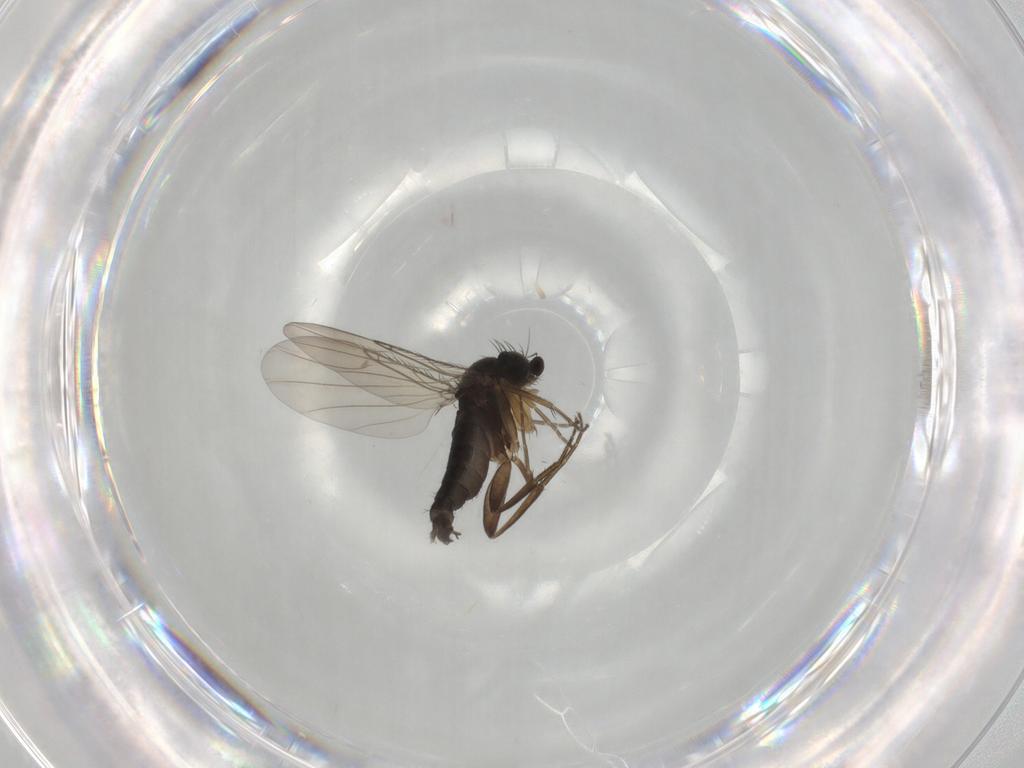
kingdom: Animalia
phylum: Arthropoda
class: Insecta
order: Diptera
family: Phoridae
